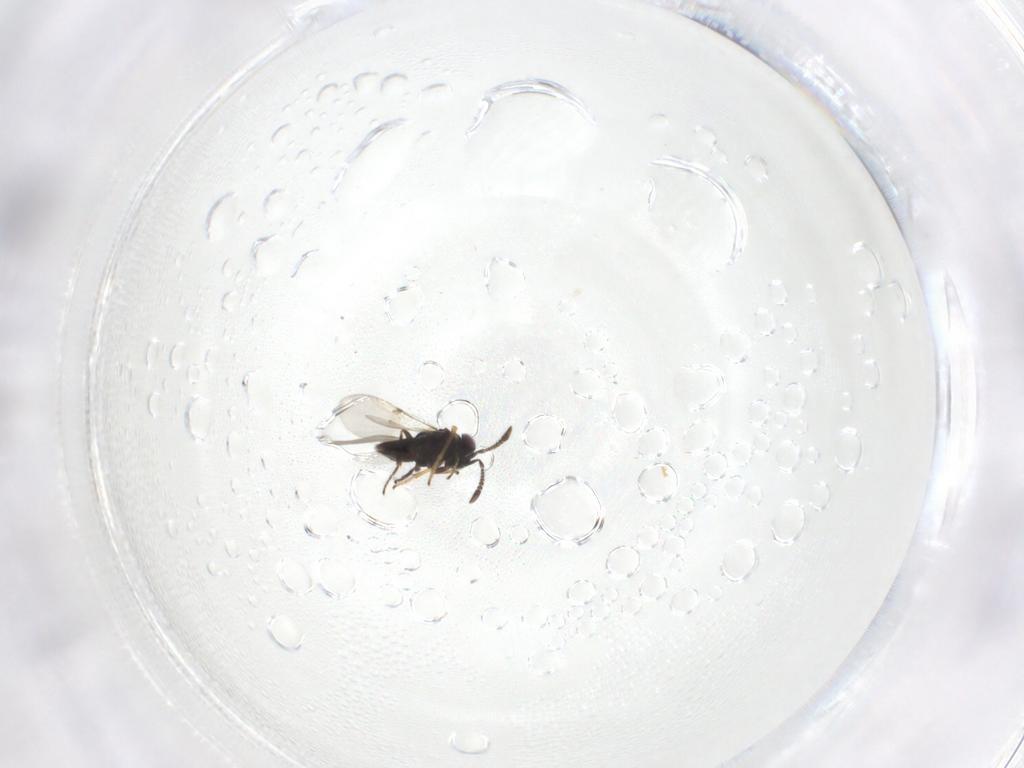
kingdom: Animalia
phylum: Arthropoda
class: Insecta
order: Hymenoptera
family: Encyrtidae
